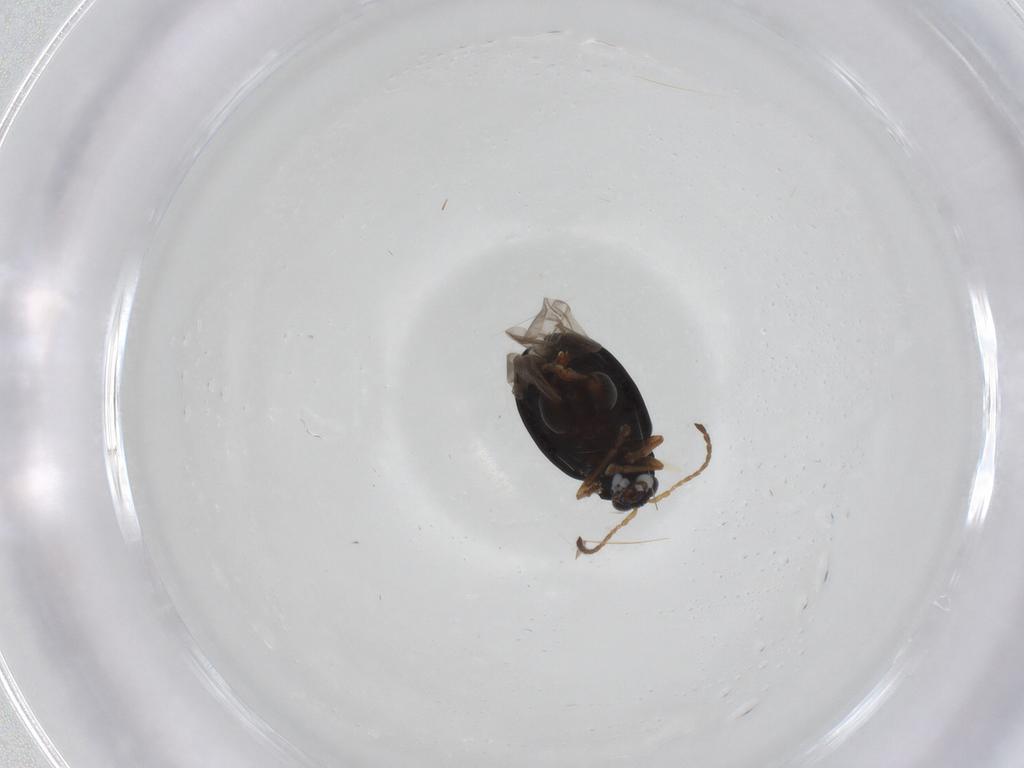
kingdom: Animalia
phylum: Arthropoda
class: Insecta
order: Coleoptera
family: Chrysomelidae
